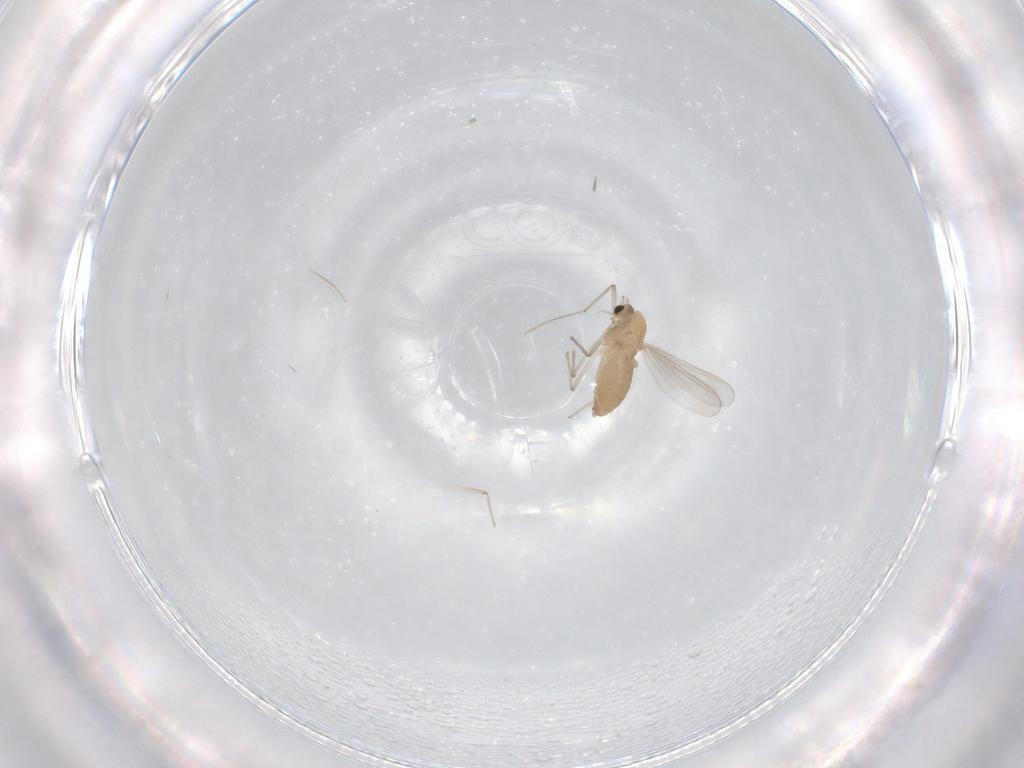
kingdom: Animalia
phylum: Arthropoda
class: Insecta
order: Diptera
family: Chironomidae
